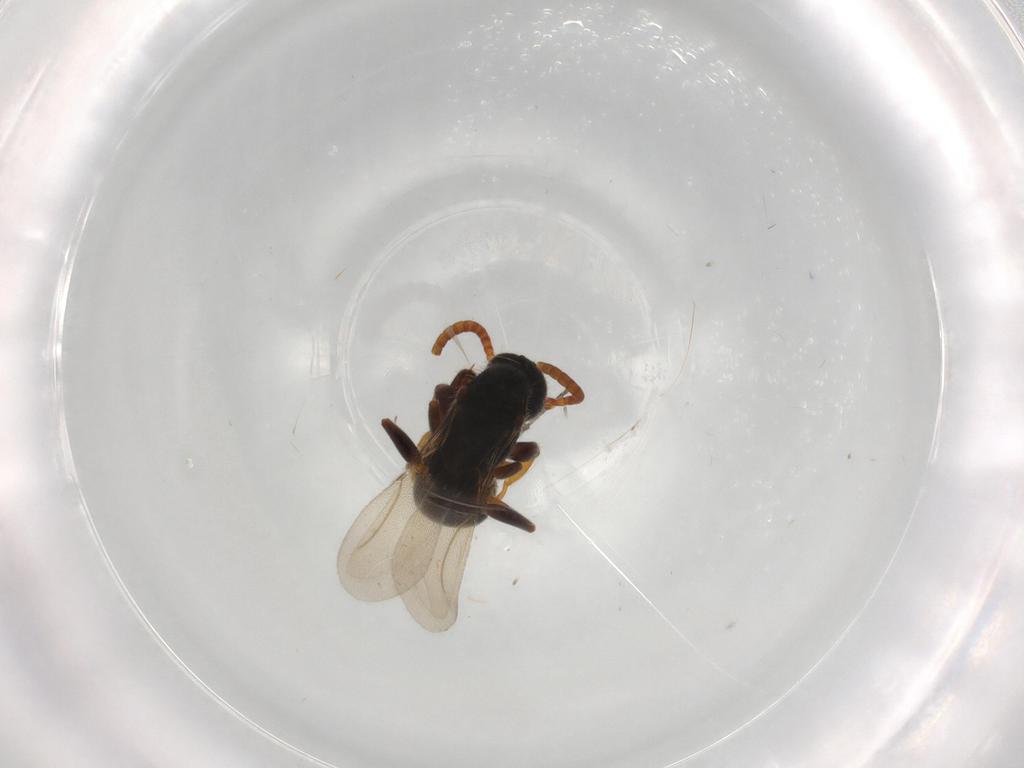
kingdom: Animalia
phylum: Arthropoda
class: Insecta
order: Hymenoptera
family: Bethylidae
